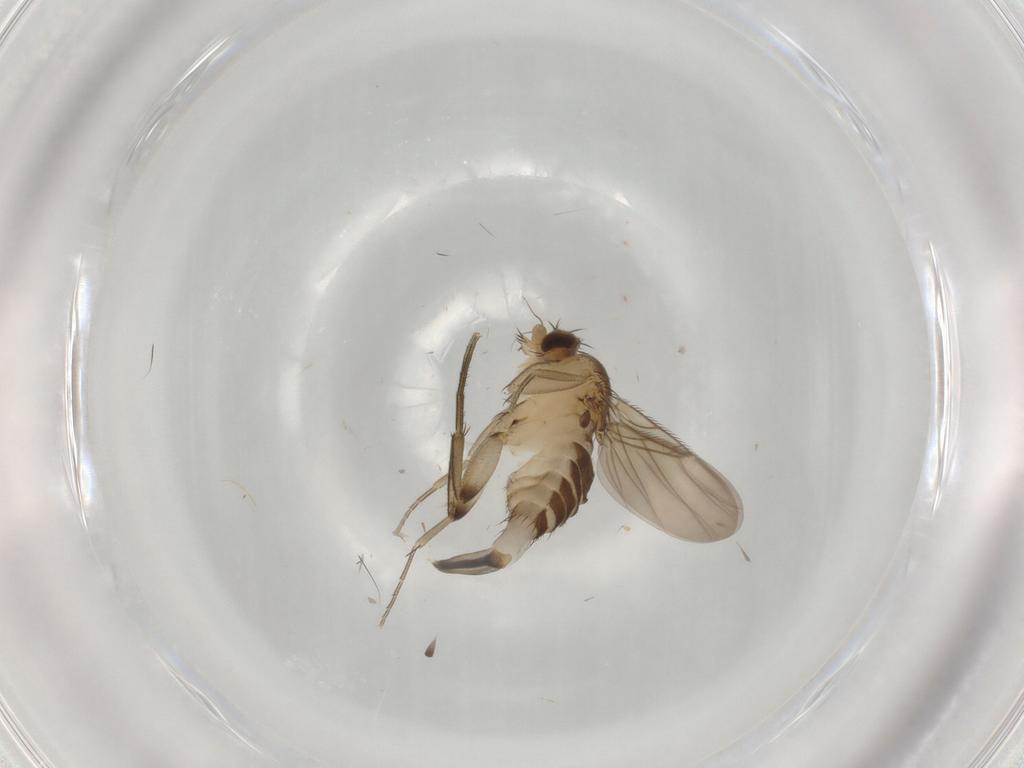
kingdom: Animalia
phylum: Arthropoda
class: Insecta
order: Diptera
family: Phoridae
